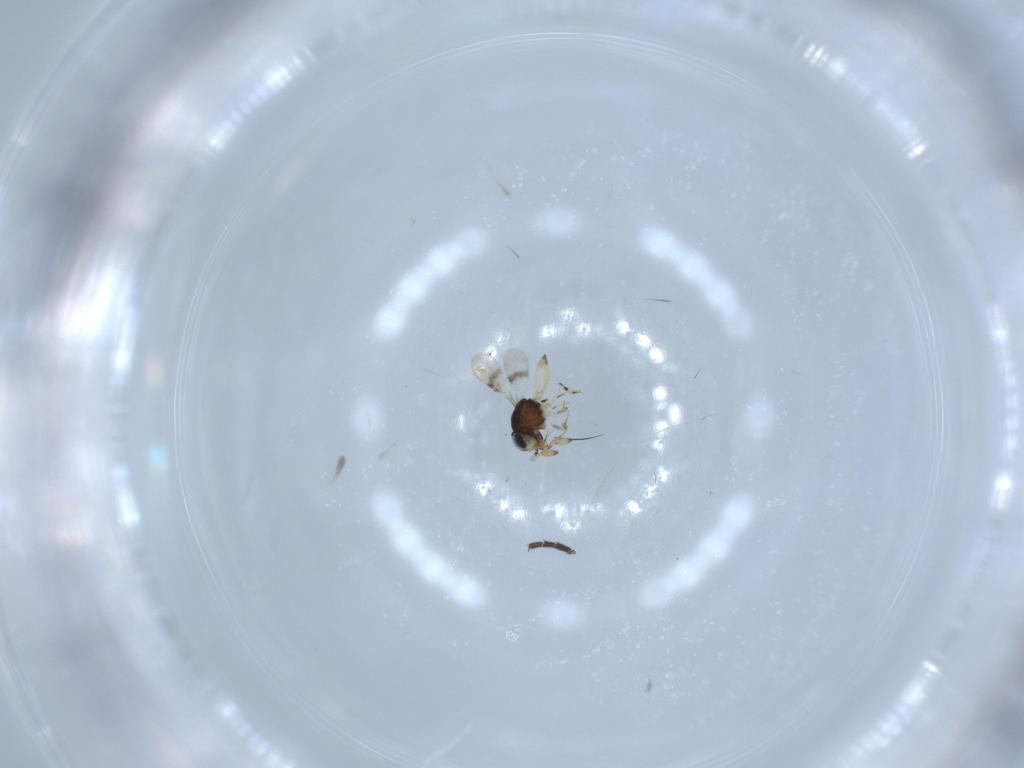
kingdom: Animalia
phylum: Arthropoda
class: Insecta
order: Hymenoptera
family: Scelionidae
